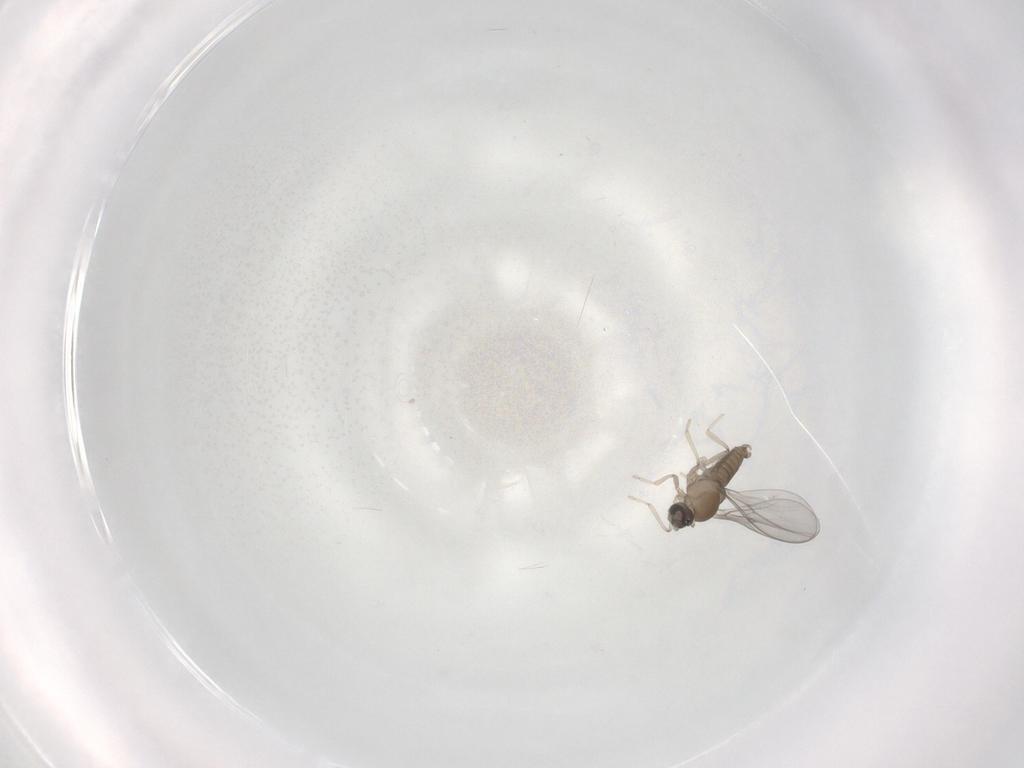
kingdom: Animalia
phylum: Arthropoda
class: Insecta
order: Diptera
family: Cecidomyiidae
